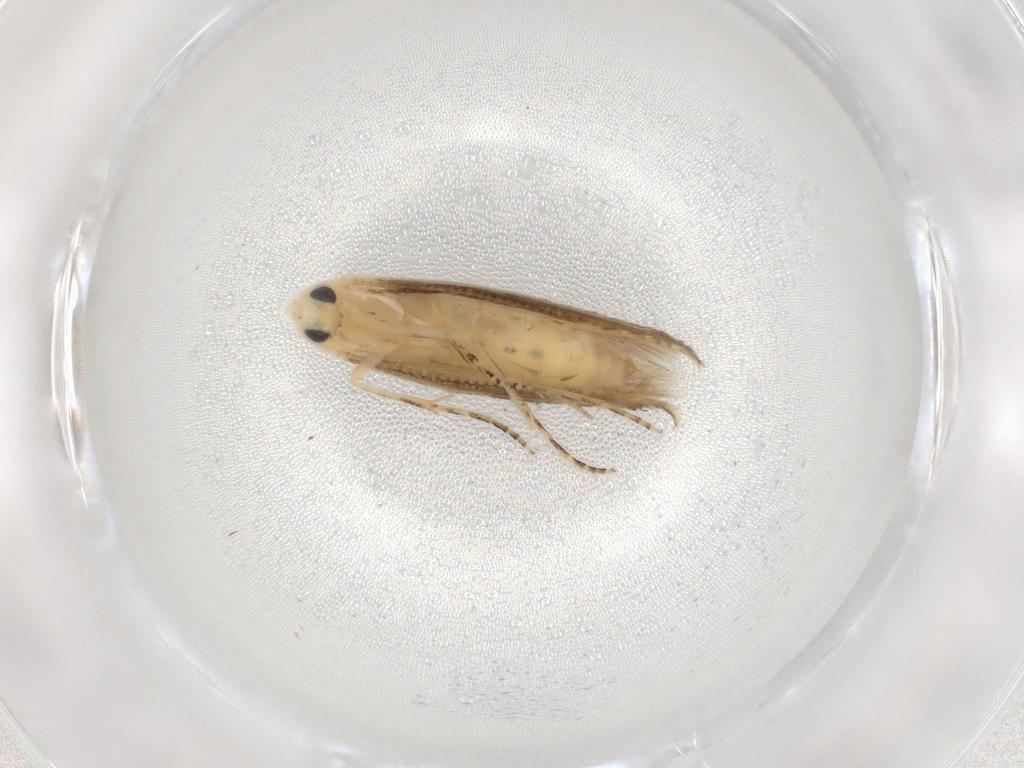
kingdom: Animalia
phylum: Arthropoda
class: Insecta
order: Lepidoptera
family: Bucculatricidae
